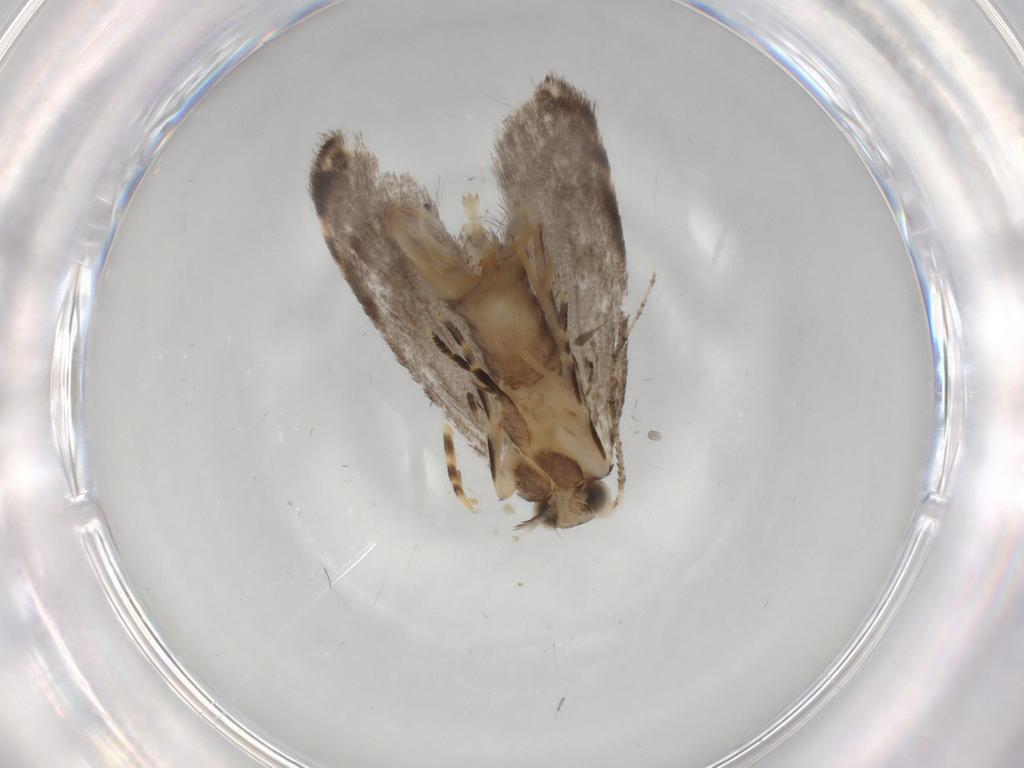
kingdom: Animalia
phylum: Arthropoda
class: Insecta
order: Lepidoptera
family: Tineidae
